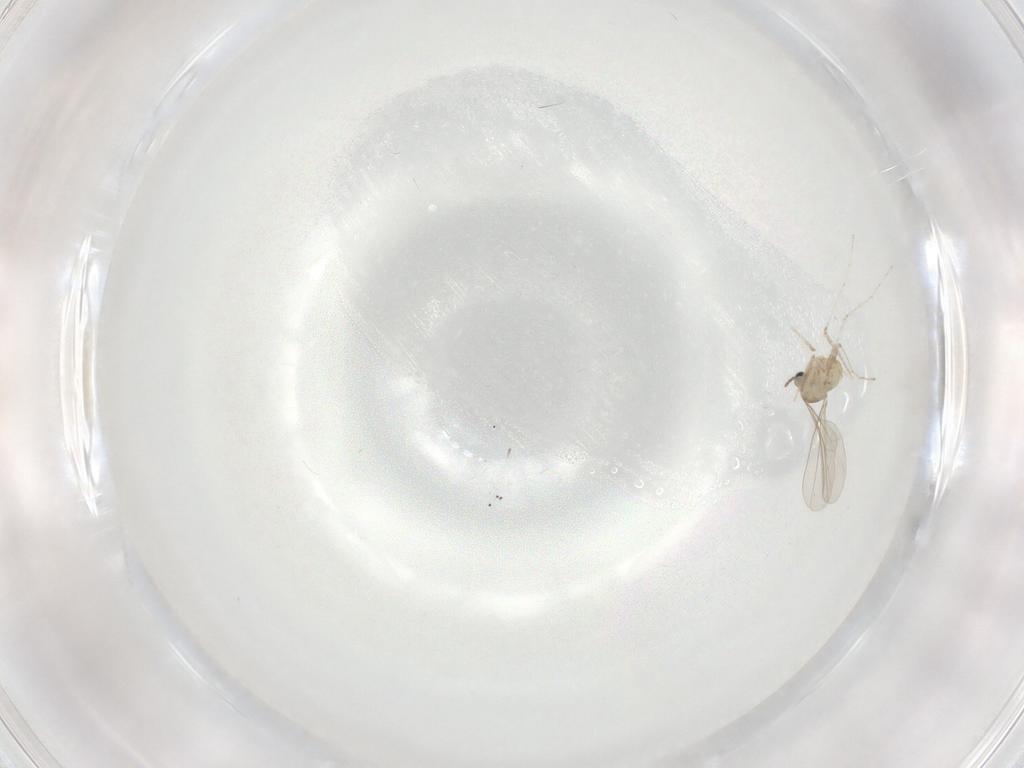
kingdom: Animalia
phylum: Arthropoda
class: Insecta
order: Diptera
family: Cecidomyiidae
